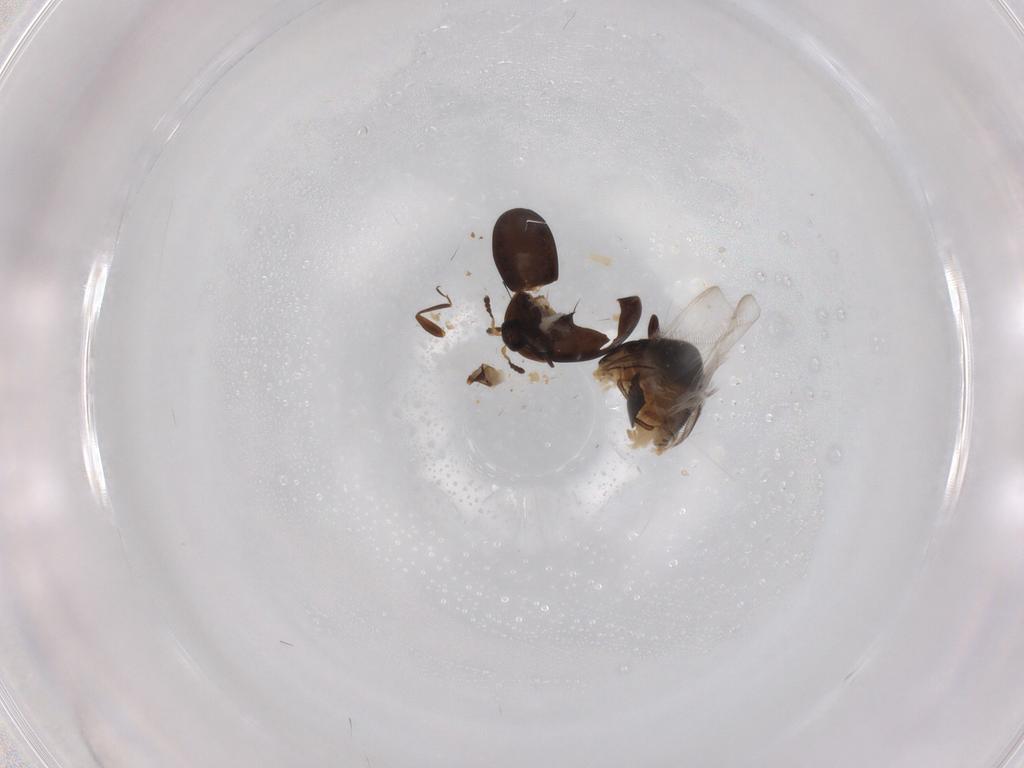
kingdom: Animalia
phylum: Arthropoda
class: Insecta
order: Coleoptera
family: Corylophidae
